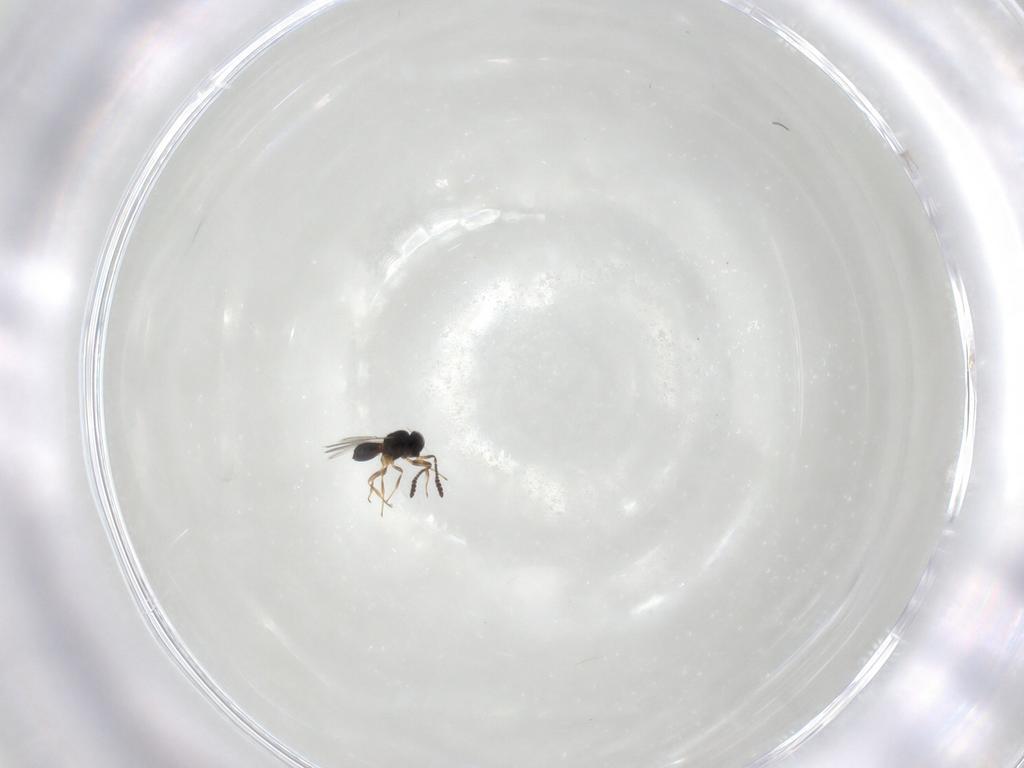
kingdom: Animalia
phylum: Arthropoda
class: Insecta
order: Hymenoptera
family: Scelionidae
